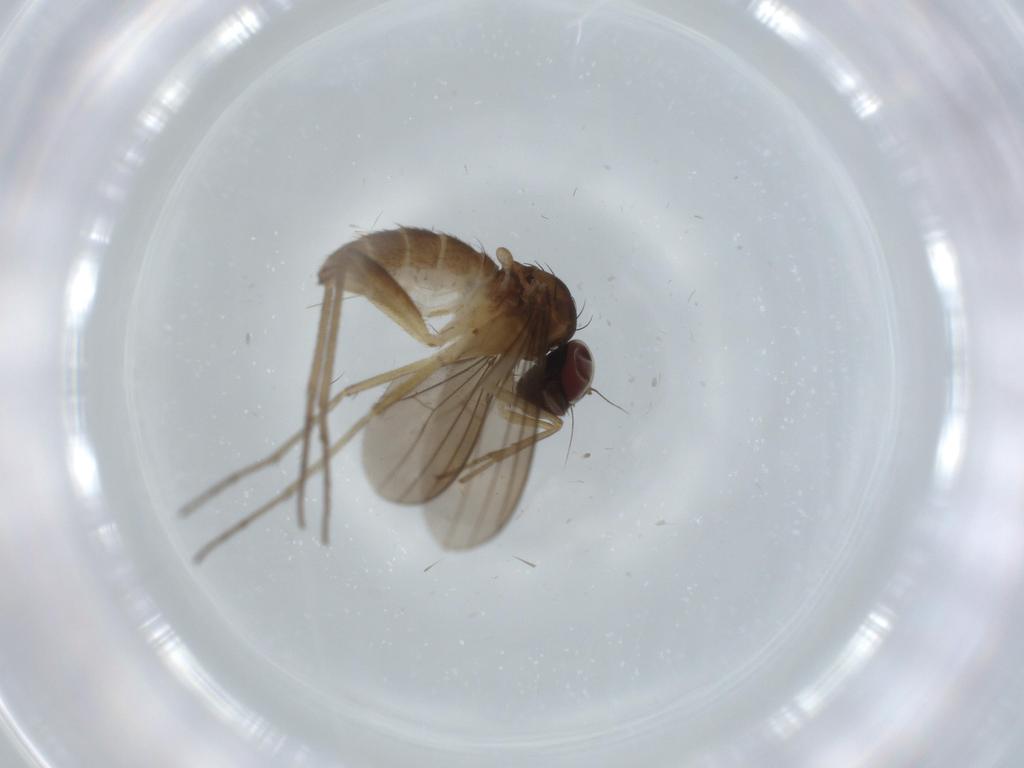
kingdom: Animalia
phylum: Arthropoda
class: Insecta
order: Diptera
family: Dolichopodidae
